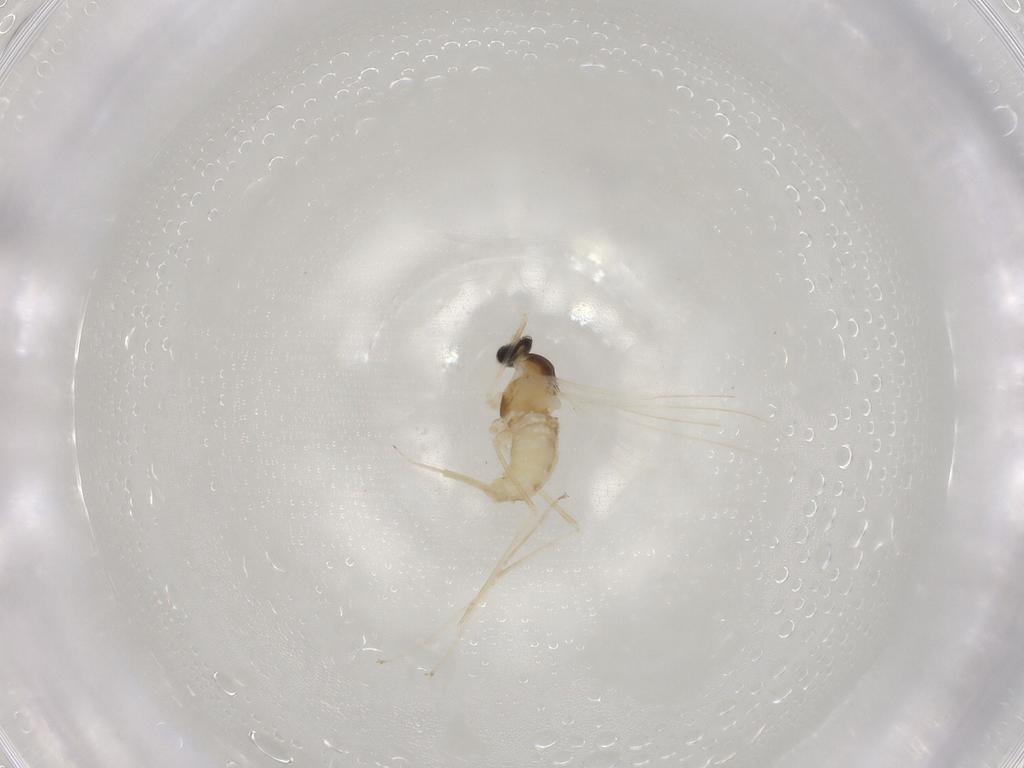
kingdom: Animalia
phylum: Arthropoda
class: Insecta
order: Diptera
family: Cecidomyiidae
